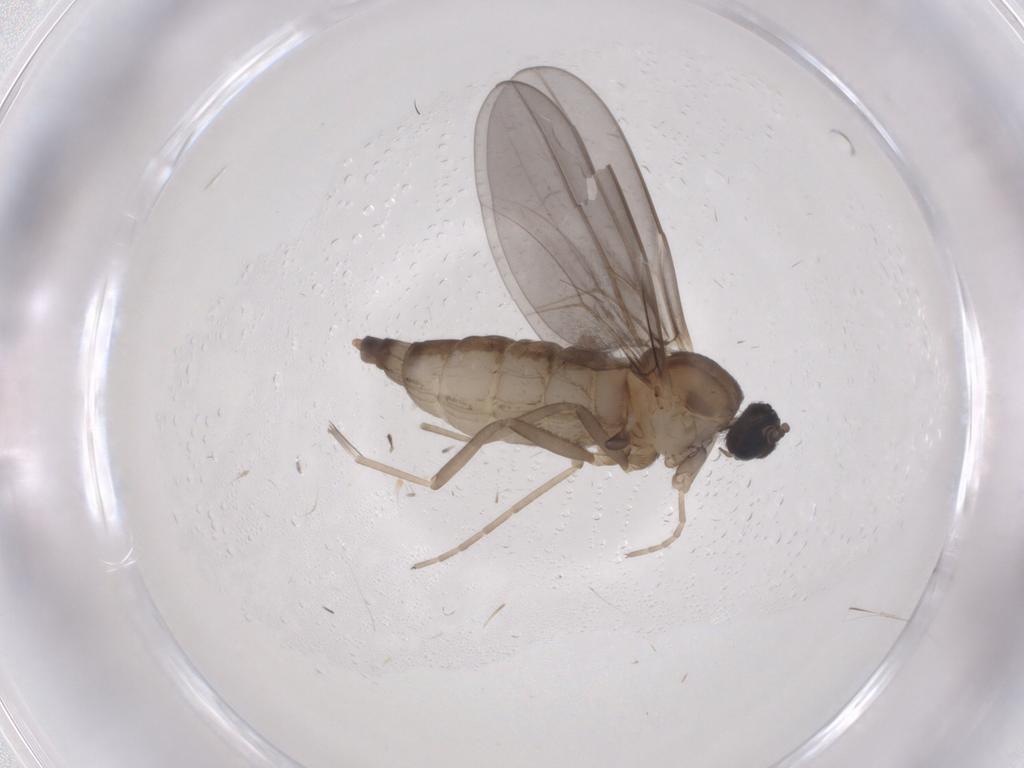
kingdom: Animalia
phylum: Arthropoda
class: Insecta
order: Diptera
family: Cecidomyiidae
